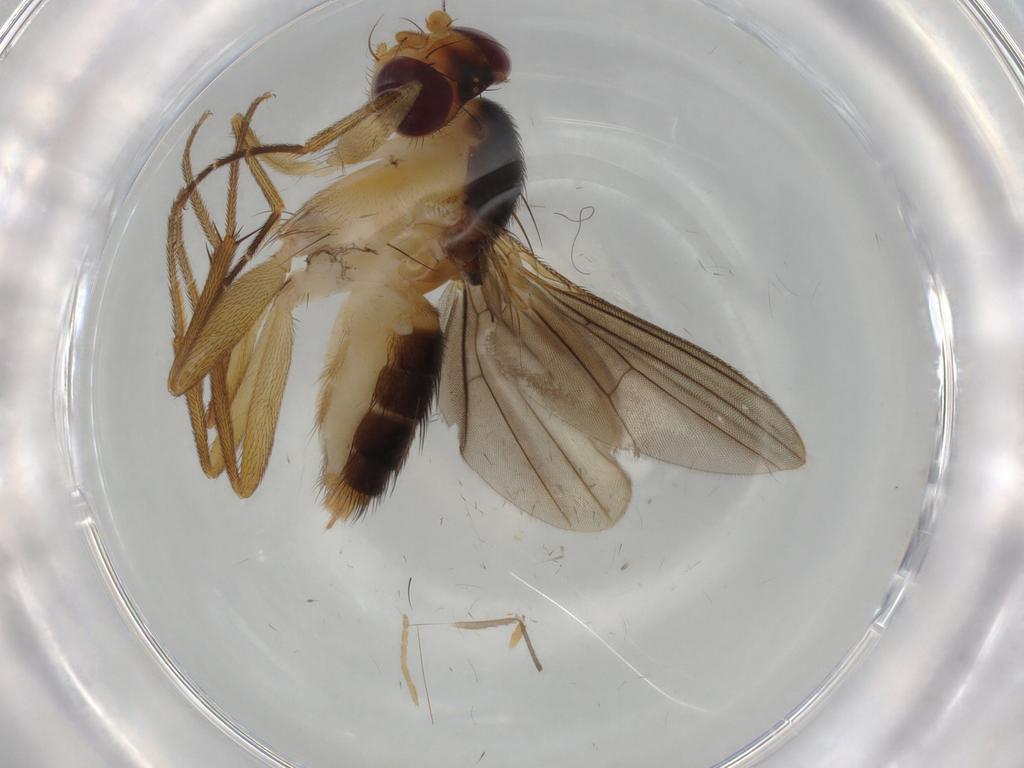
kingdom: Animalia
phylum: Arthropoda
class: Insecta
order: Diptera
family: Clusiidae
